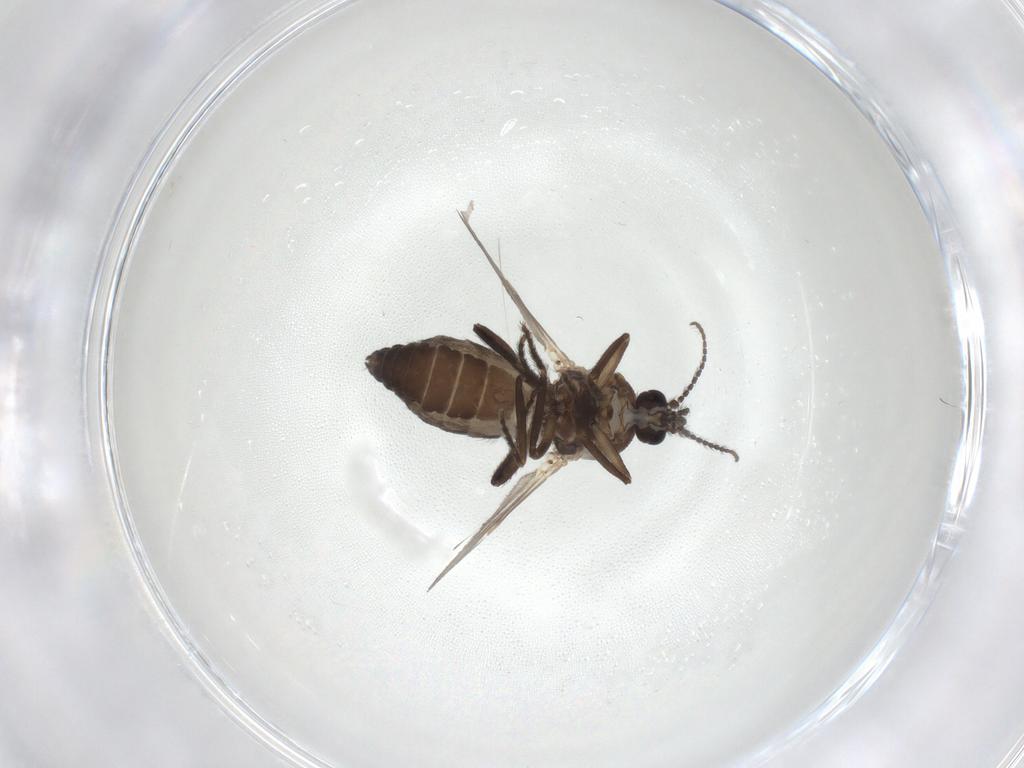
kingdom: Animalia
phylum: Arthropoda
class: Insecta
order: Diptera
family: Ceratopogonidae
